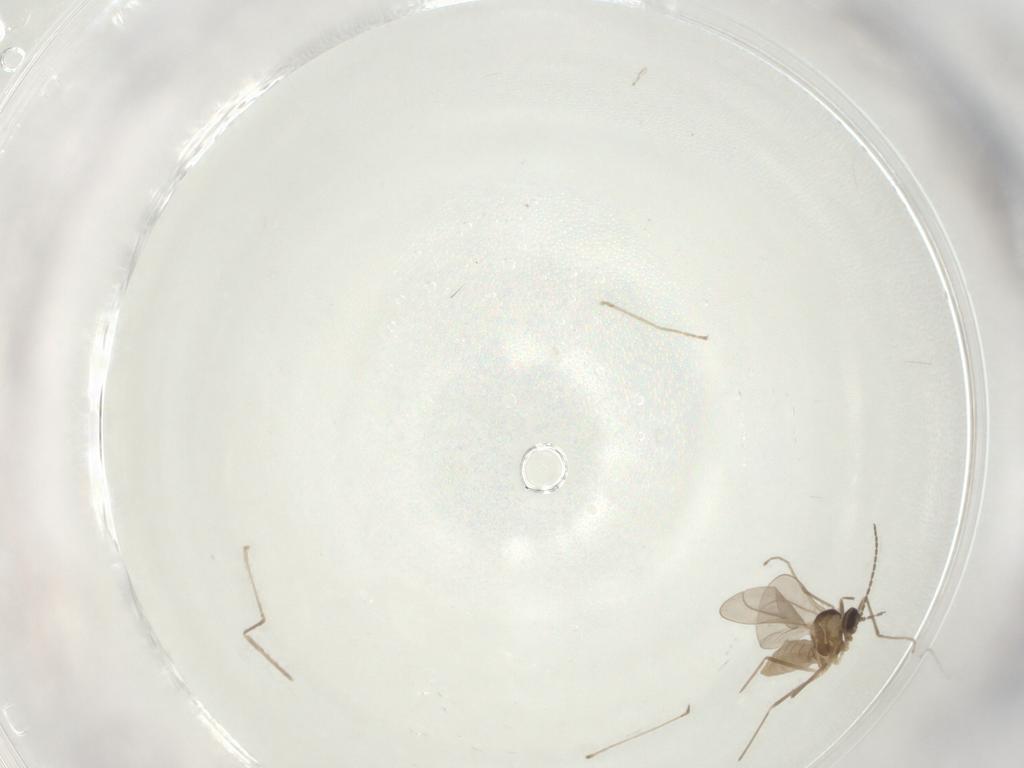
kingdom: Animalia
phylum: Arthropoda
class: Insecta
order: Diptera
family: Cecidomyiidae
